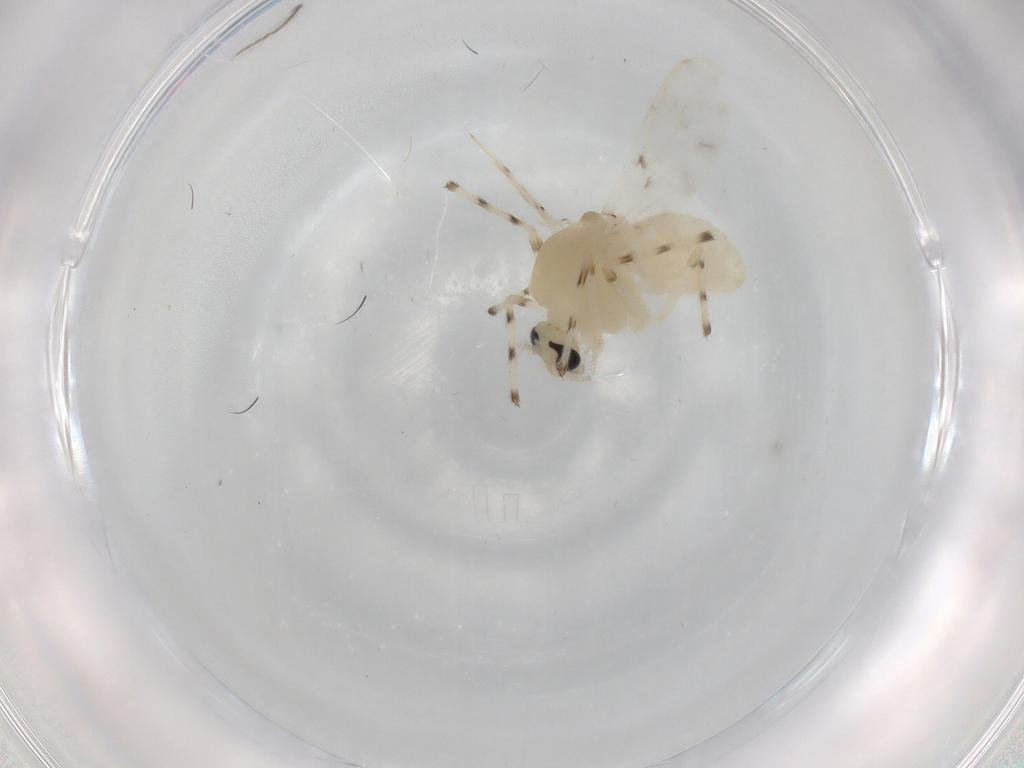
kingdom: Animalia
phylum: Arthropoda
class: Insecta
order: Diptera
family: Chironomidae
